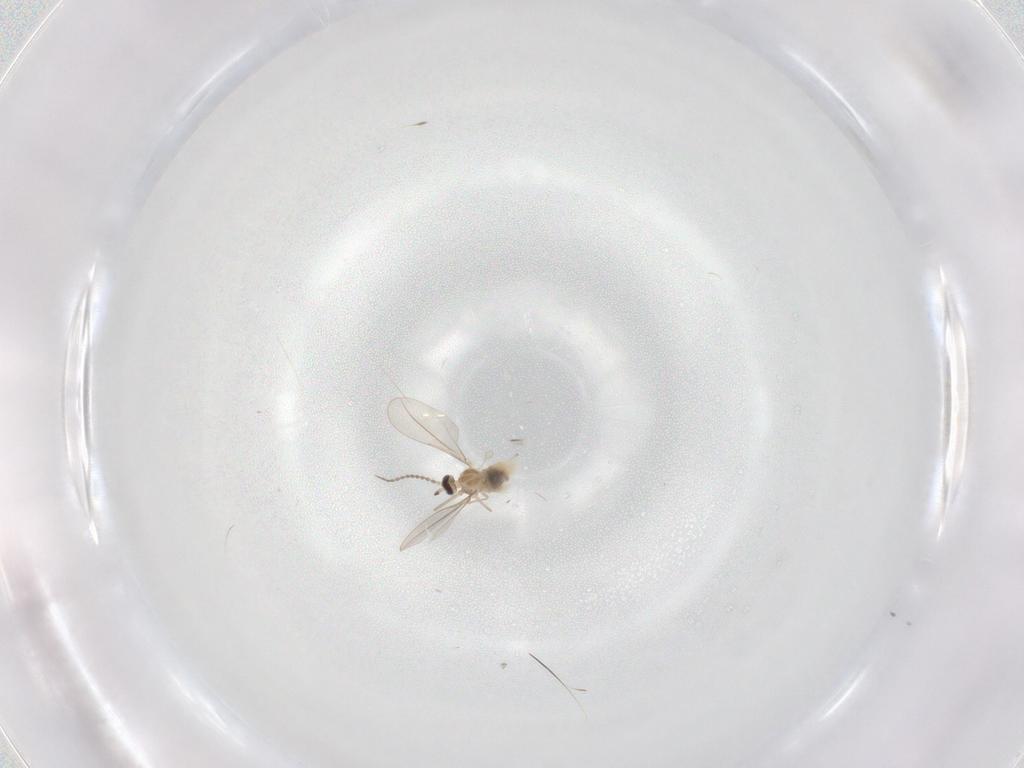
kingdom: Animalia
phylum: Arthropoda
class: Insecta
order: Diptera
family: Cecidomyiidae
